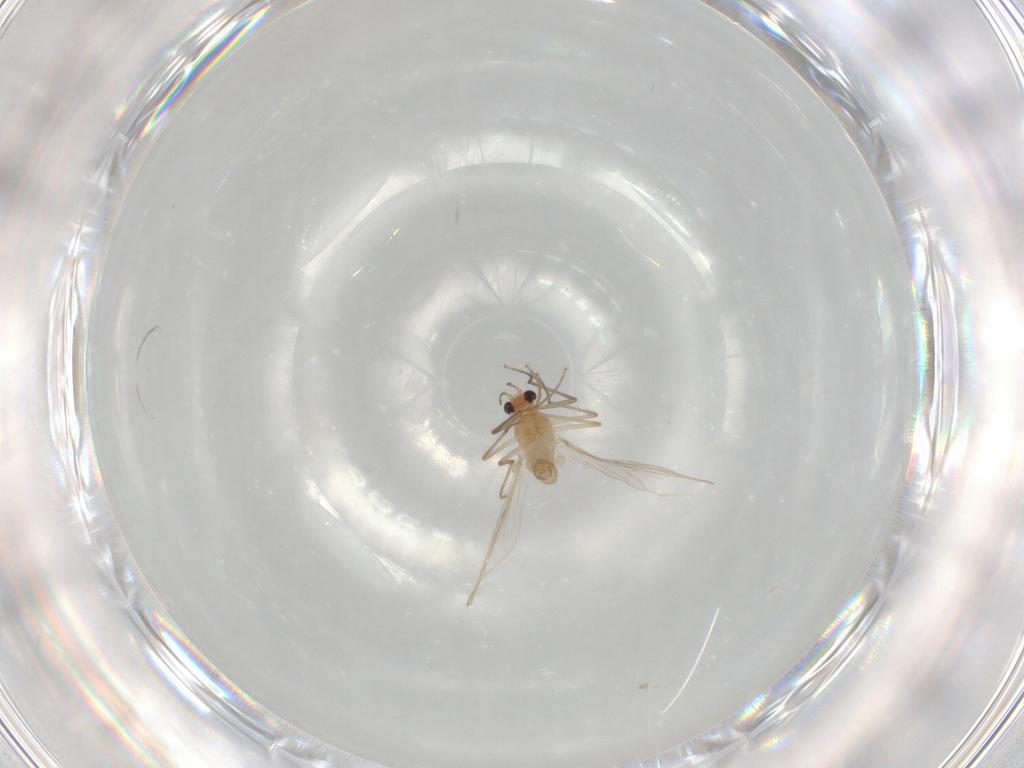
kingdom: Animalia
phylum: Arthropoda
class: Insecta
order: Diptera
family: Chironomidae
